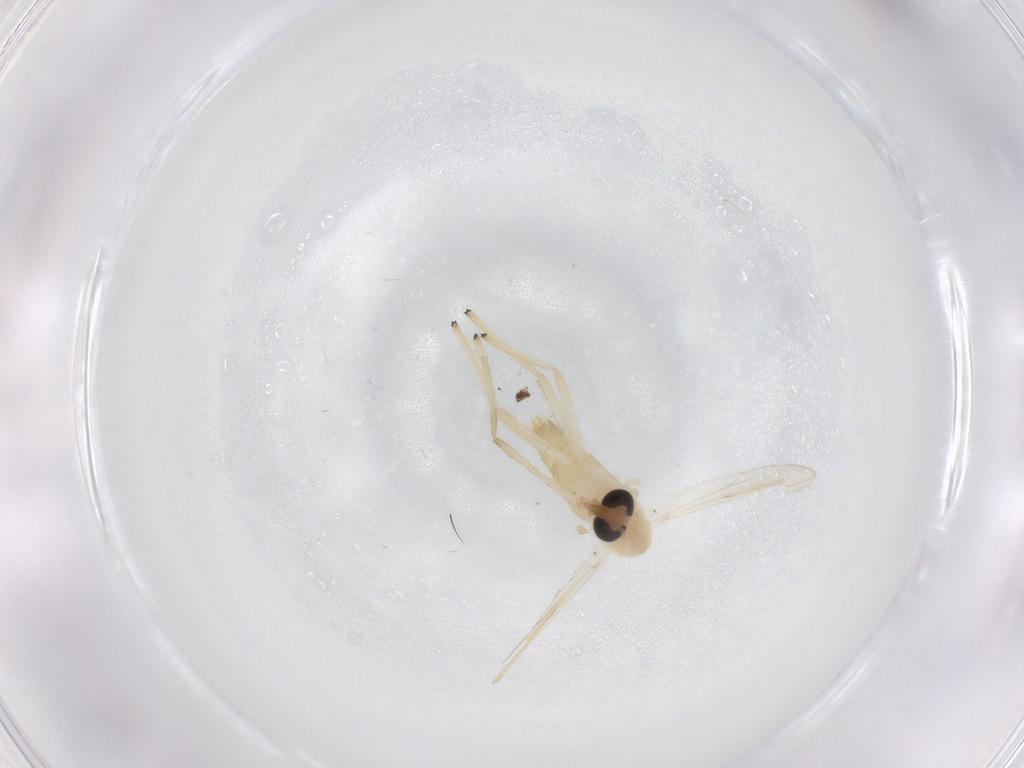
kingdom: Animalia
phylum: Arthropoda
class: Insecta
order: Diptera
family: Chironomidae
